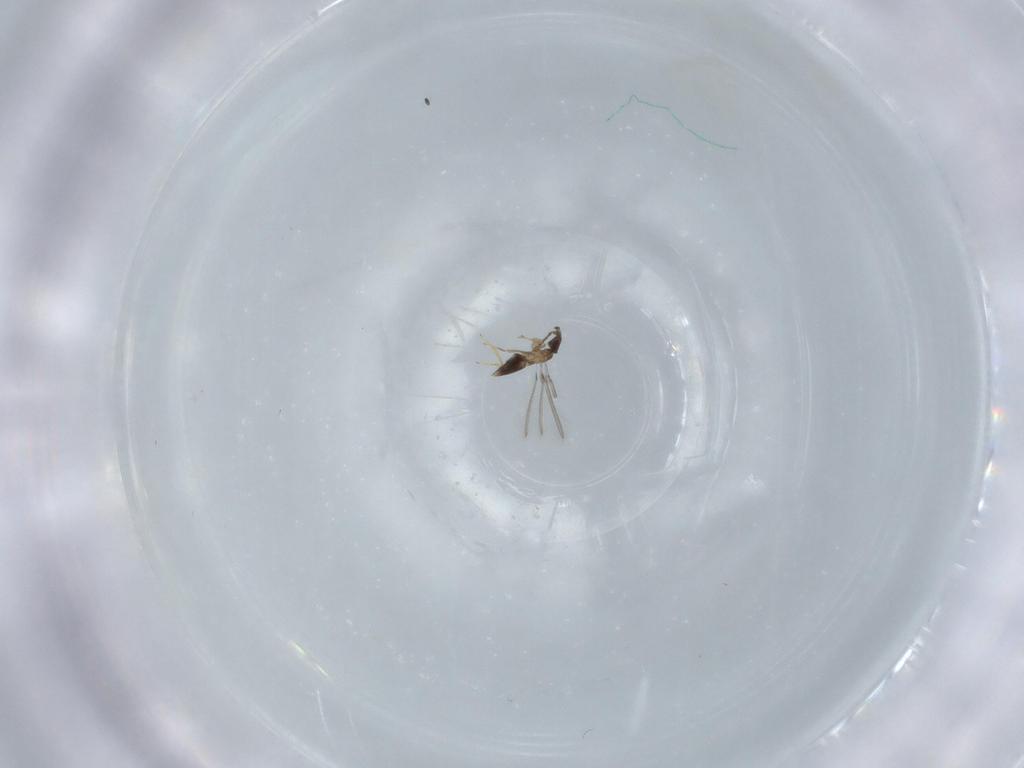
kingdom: Animalia
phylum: Arthropoda
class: Insecta
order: Hymenoptera
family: Mymaridae
